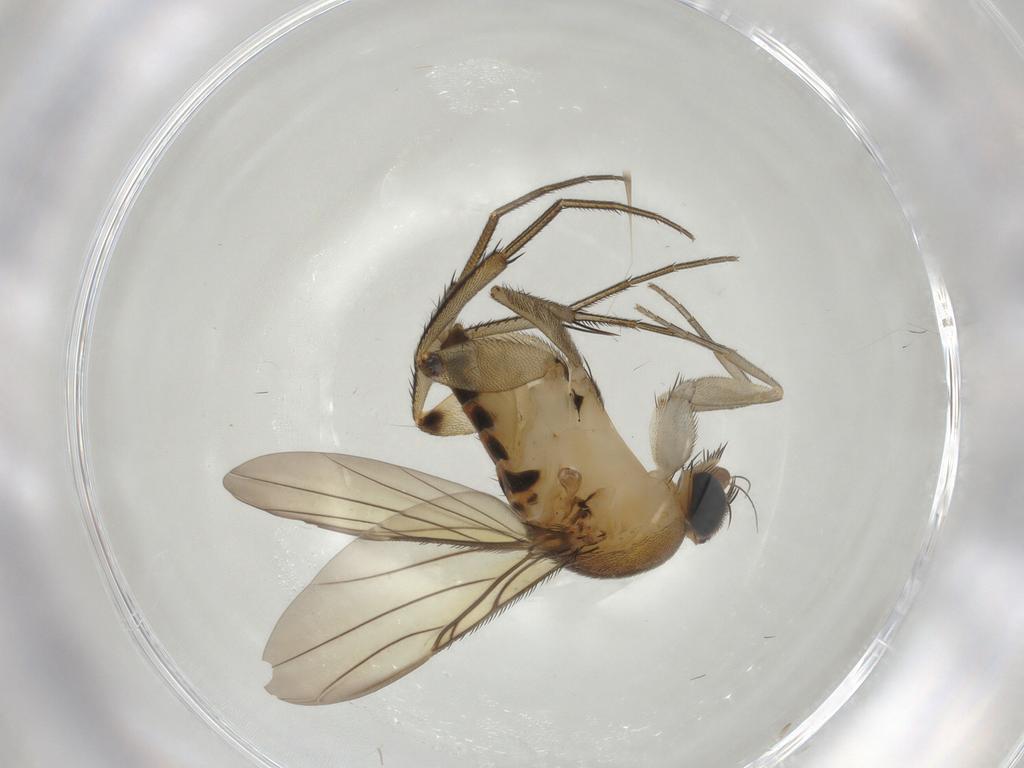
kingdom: Animalia
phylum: Arthropoda
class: Insecta
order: Diptera
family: Phoridae
